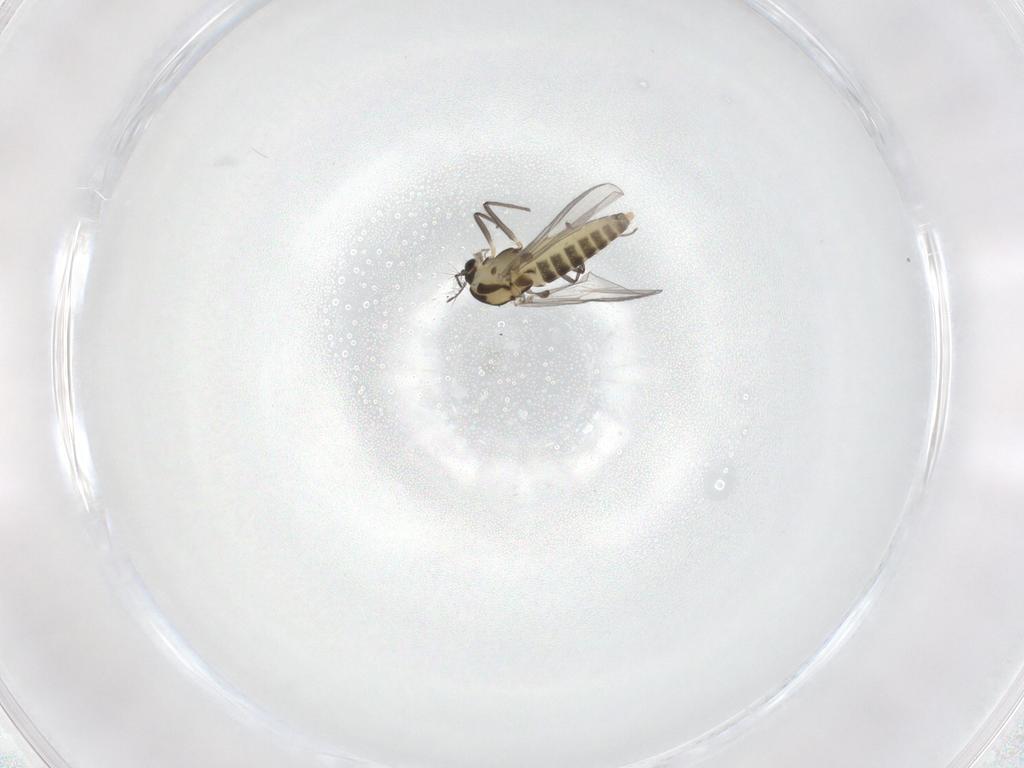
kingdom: Animalia
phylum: Arthropoda
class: Insecta
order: Diptera
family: Chironomidae
